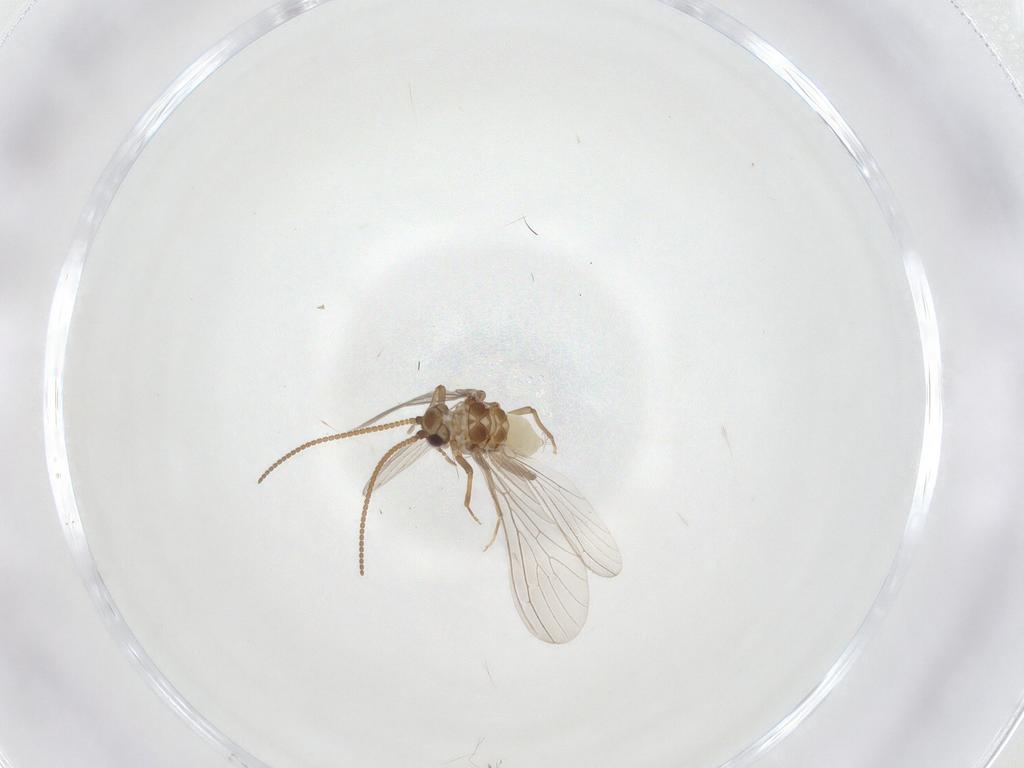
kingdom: Animalia
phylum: Arthropoda
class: Insecta
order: Neuroptera
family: Coniopterygidae
